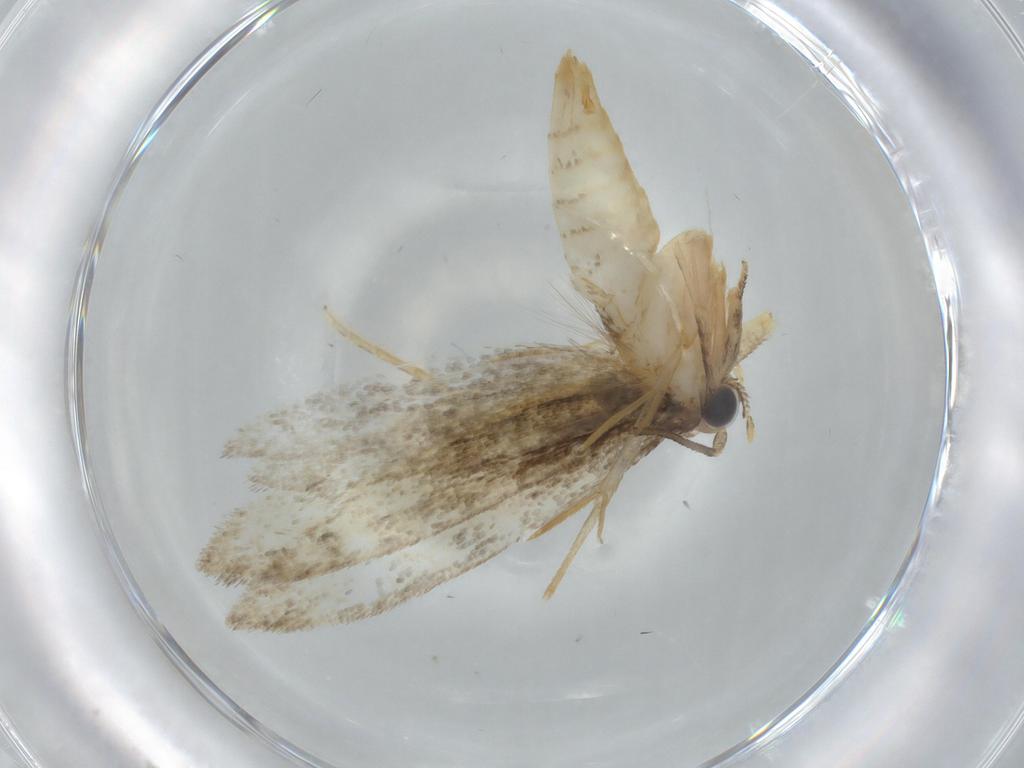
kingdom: Animalia
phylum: Arthropoda
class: Insecta
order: Lepidoptera
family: Tineidae
